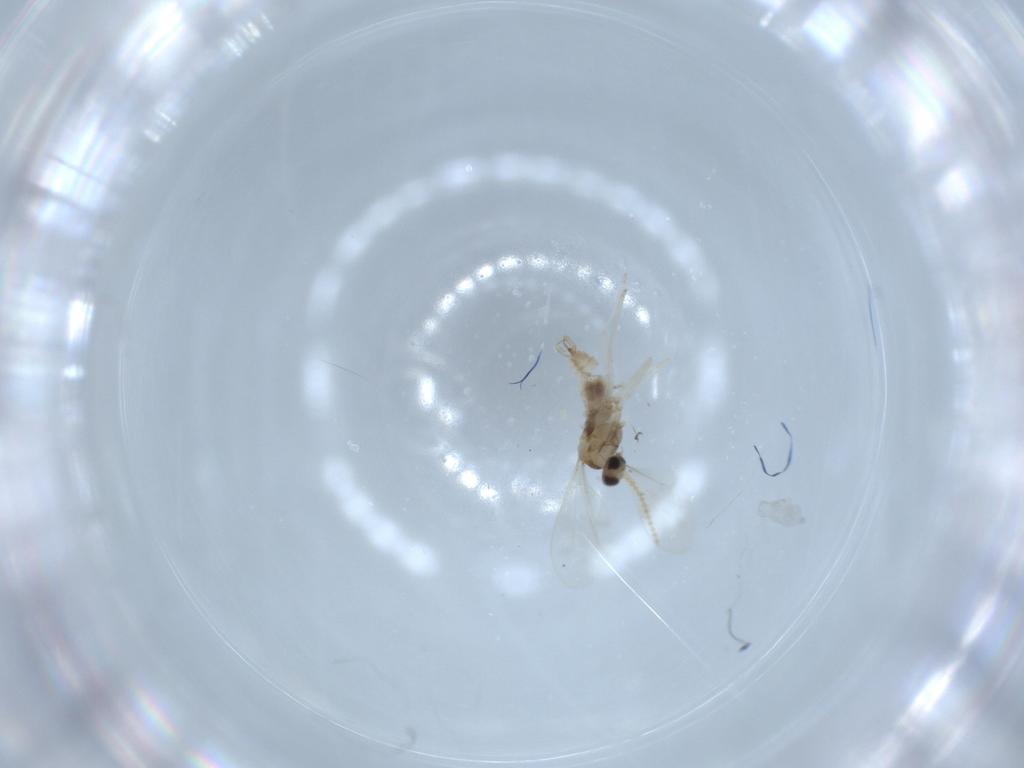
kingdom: Animalia
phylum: Arthropoda
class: Insecta
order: Diptera
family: Cecidomyiidae
